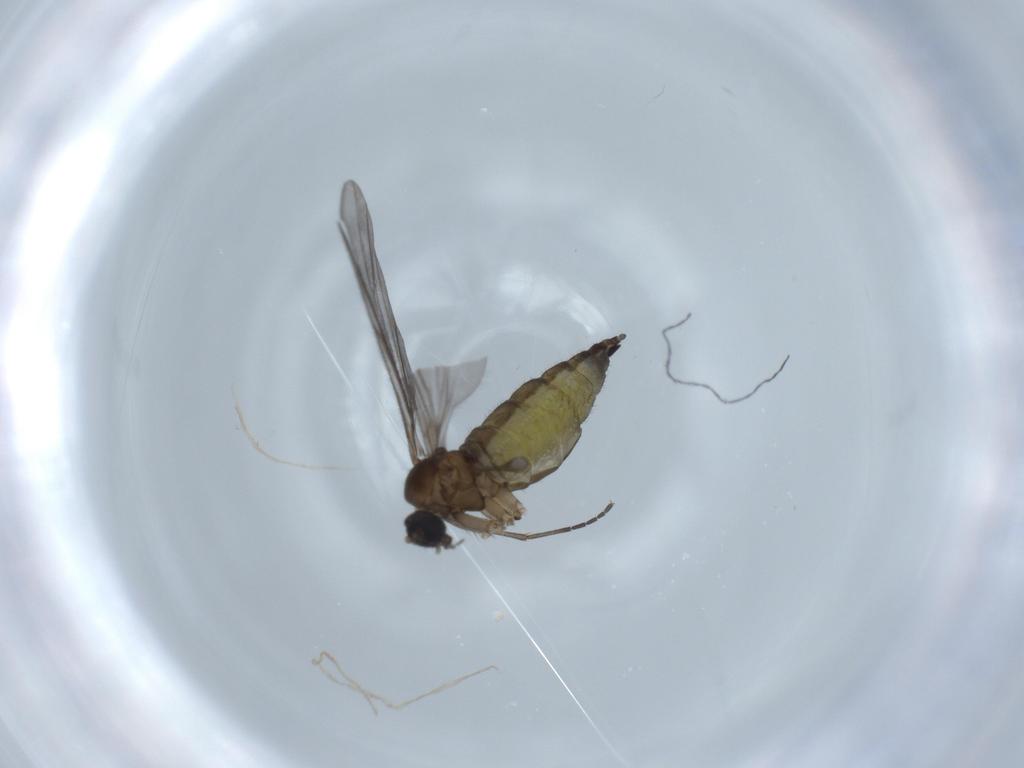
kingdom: Animalia
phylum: Arthropoda
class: Insecta
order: Diptera
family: Sciaridae
